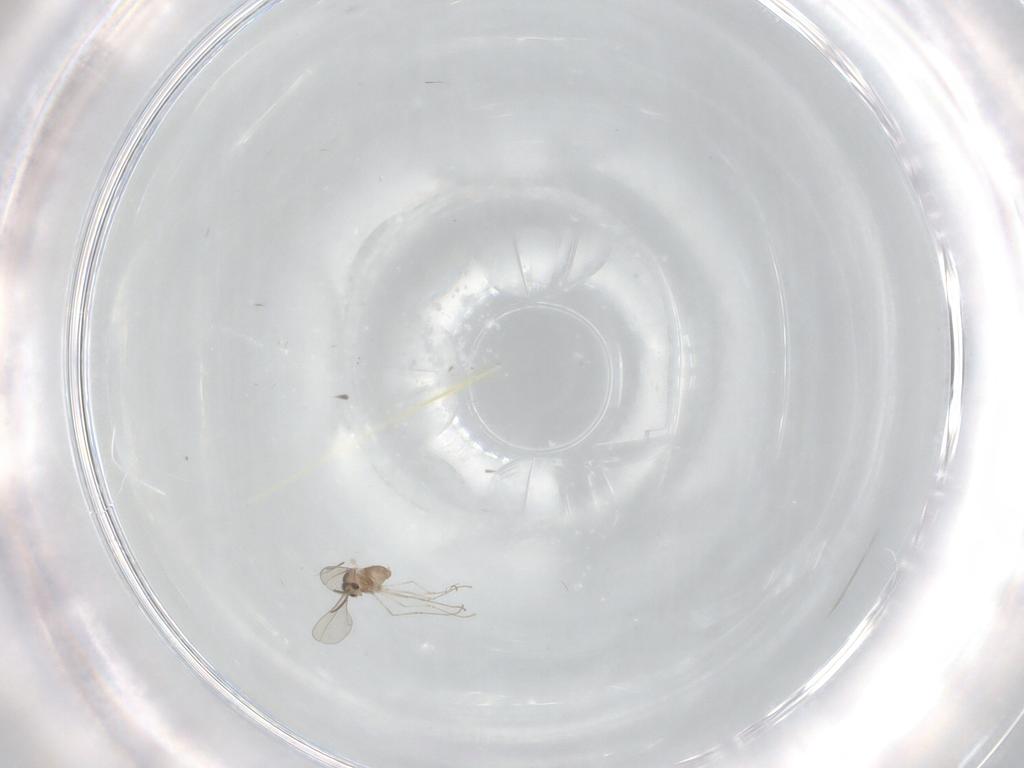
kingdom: Animalia
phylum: Arthropoda
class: Insecta
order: Diptera
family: Cecidomyiidae
